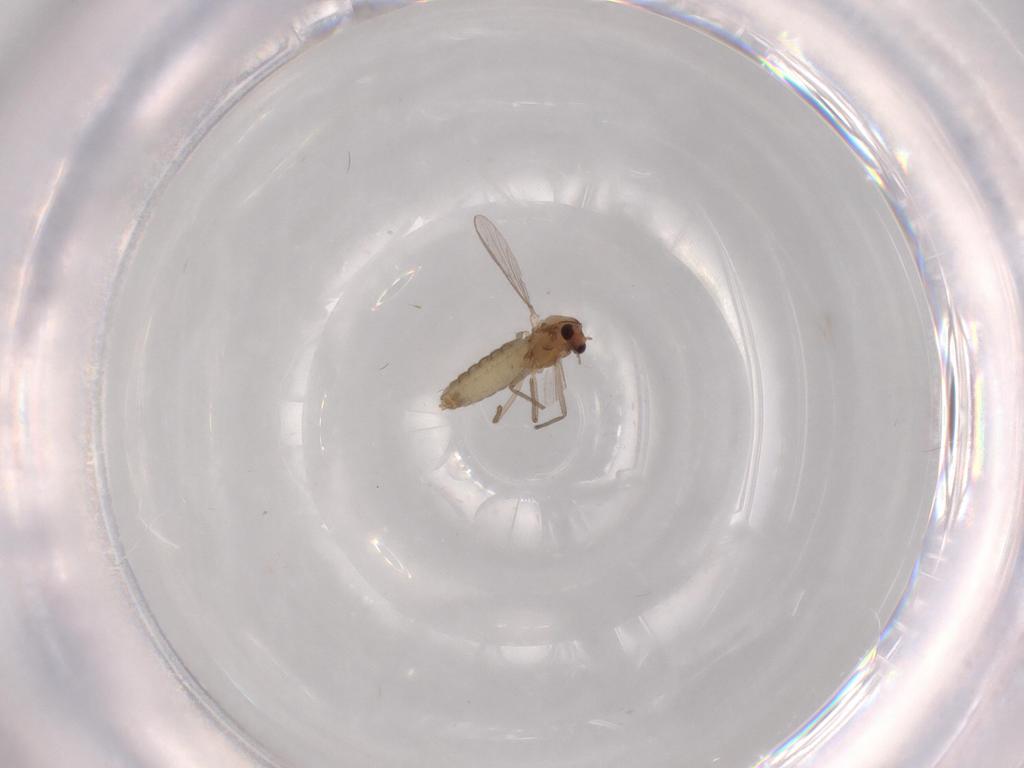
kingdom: Animalia
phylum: Arthropoda
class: Insecta
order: Diptera
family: Chironomidae
